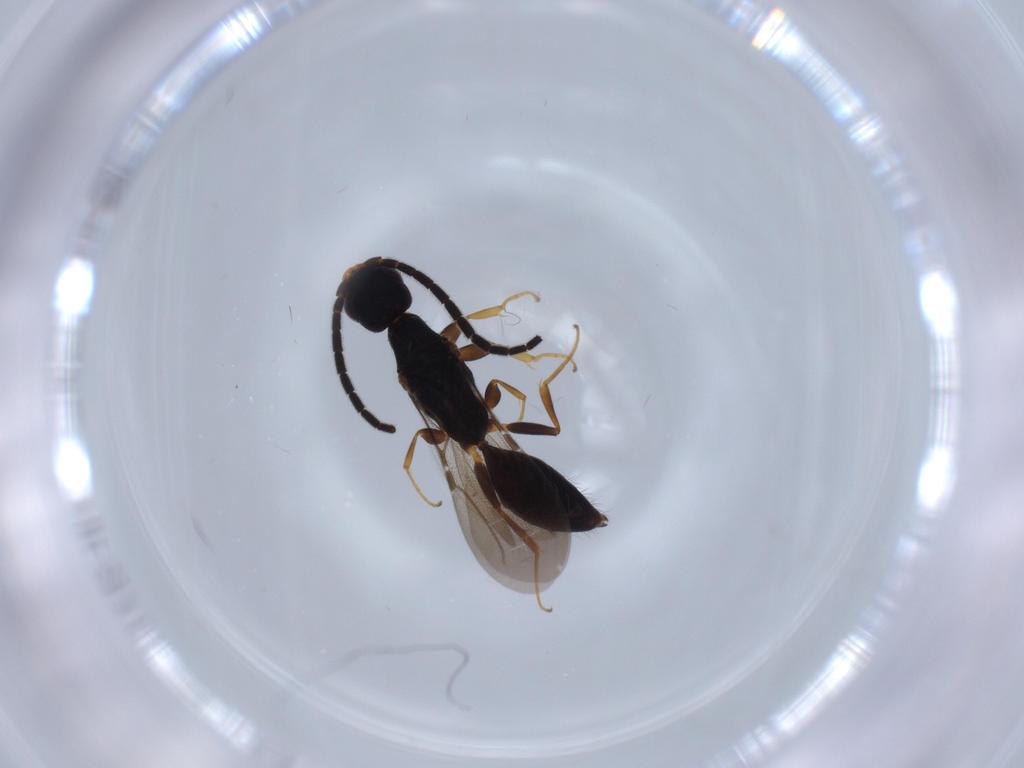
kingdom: Animalia
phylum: Arthropoda
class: Insecta
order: Hymenoptera
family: Bethylidae
